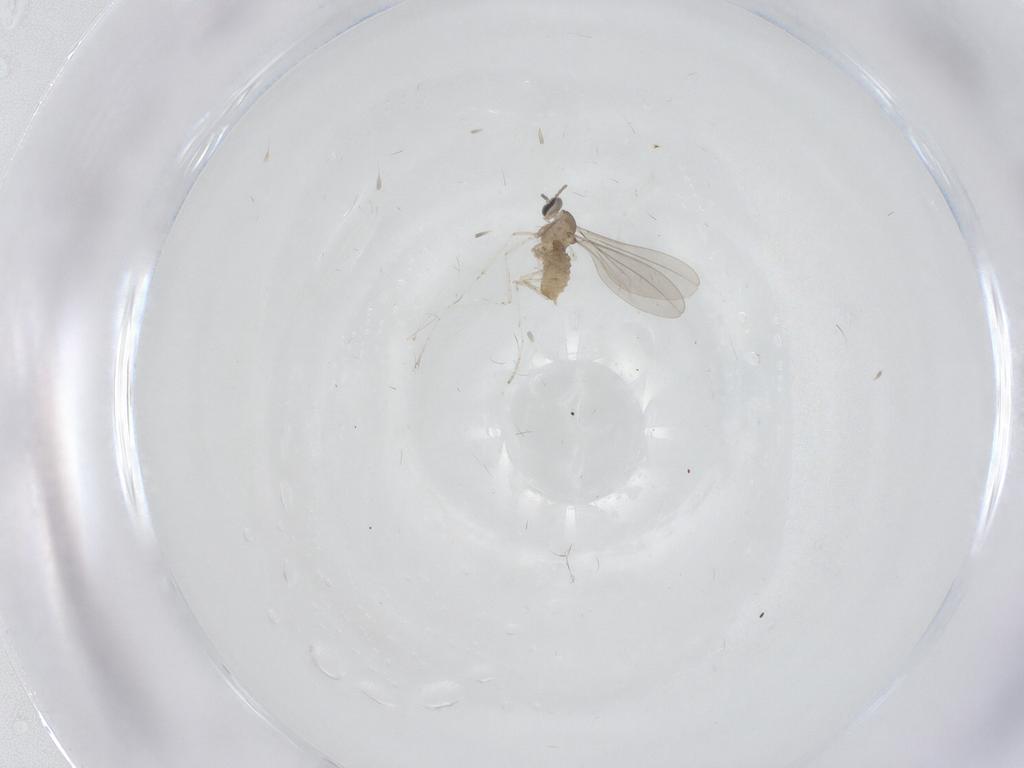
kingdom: Animalia
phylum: Arthropoda
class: Insecta
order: Diptera
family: Cecidomyiidae
